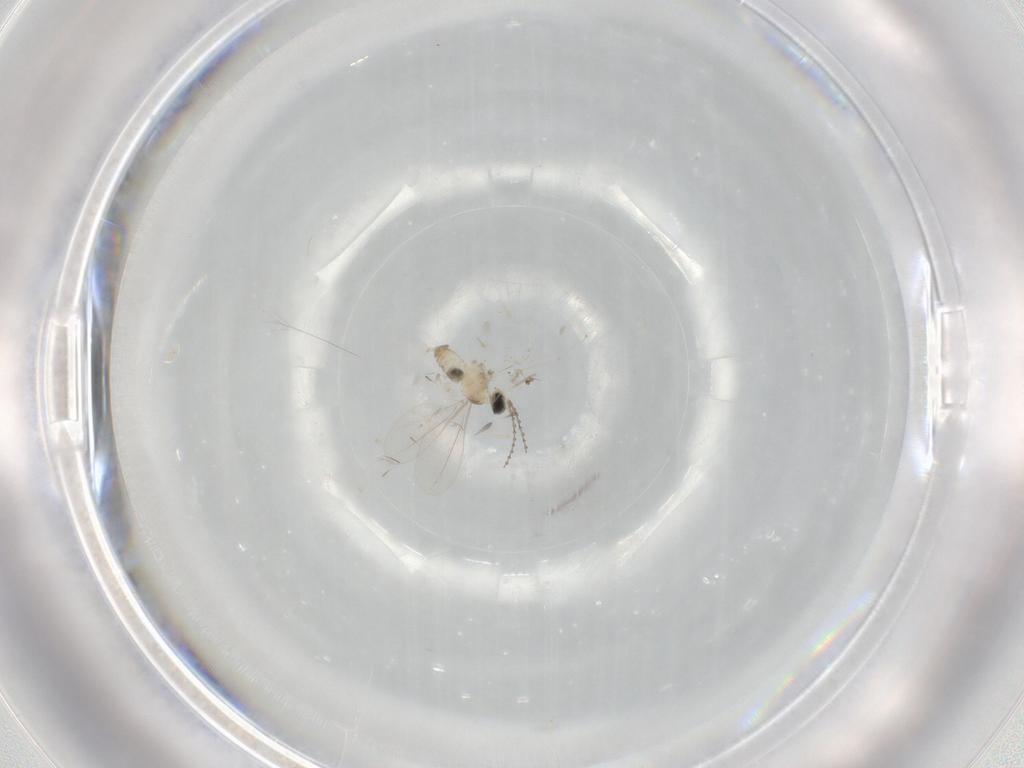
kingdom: Animalia
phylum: Arthropoda
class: Insecta
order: Diptera
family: Cecidomyiidae
